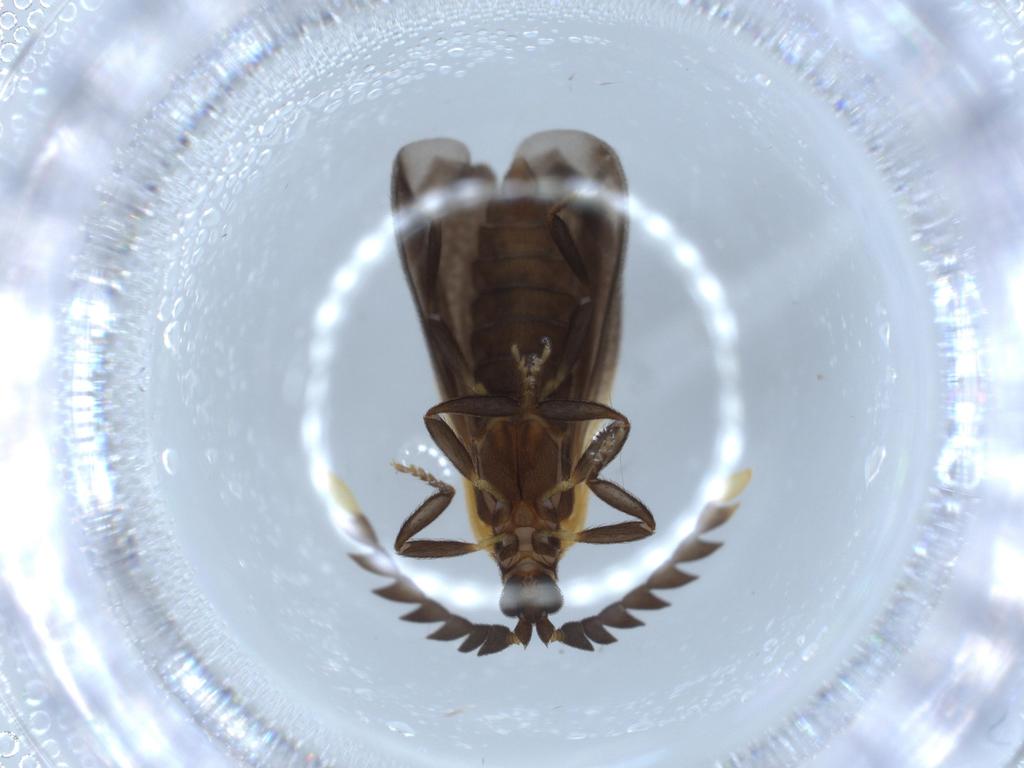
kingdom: Animalia
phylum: Arthropoda
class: Insecta
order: Coleoptera
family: Lycidae
